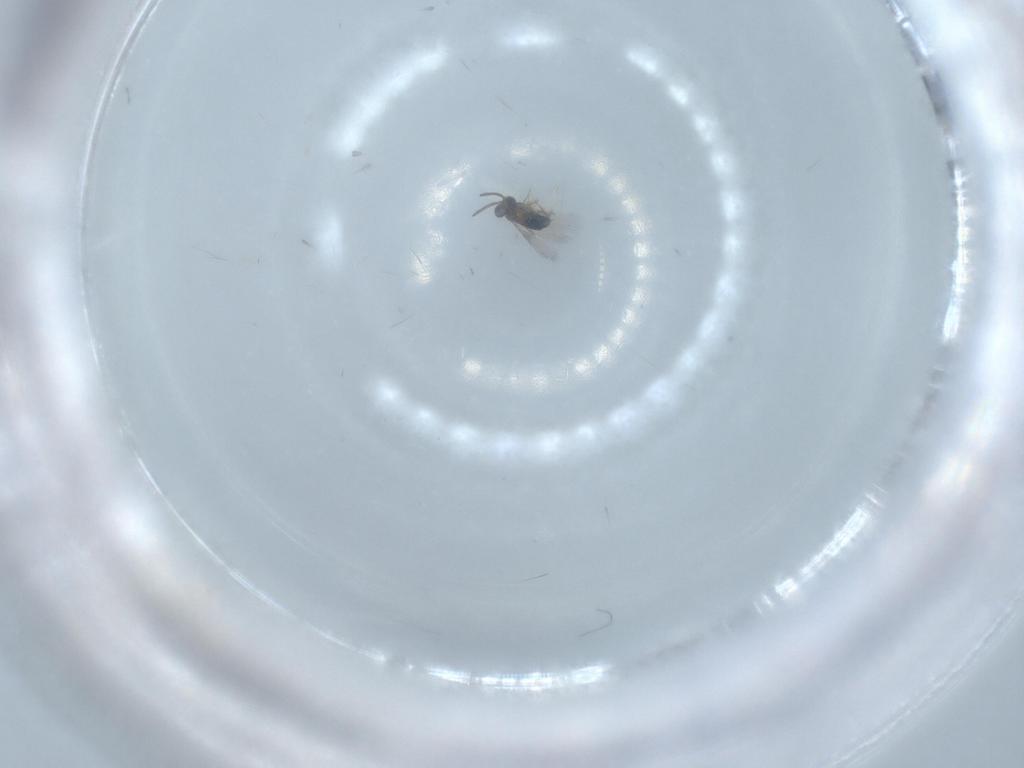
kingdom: Animalia
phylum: Arthropoda
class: Insecta
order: Hymenoptera
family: Signiphoridae
